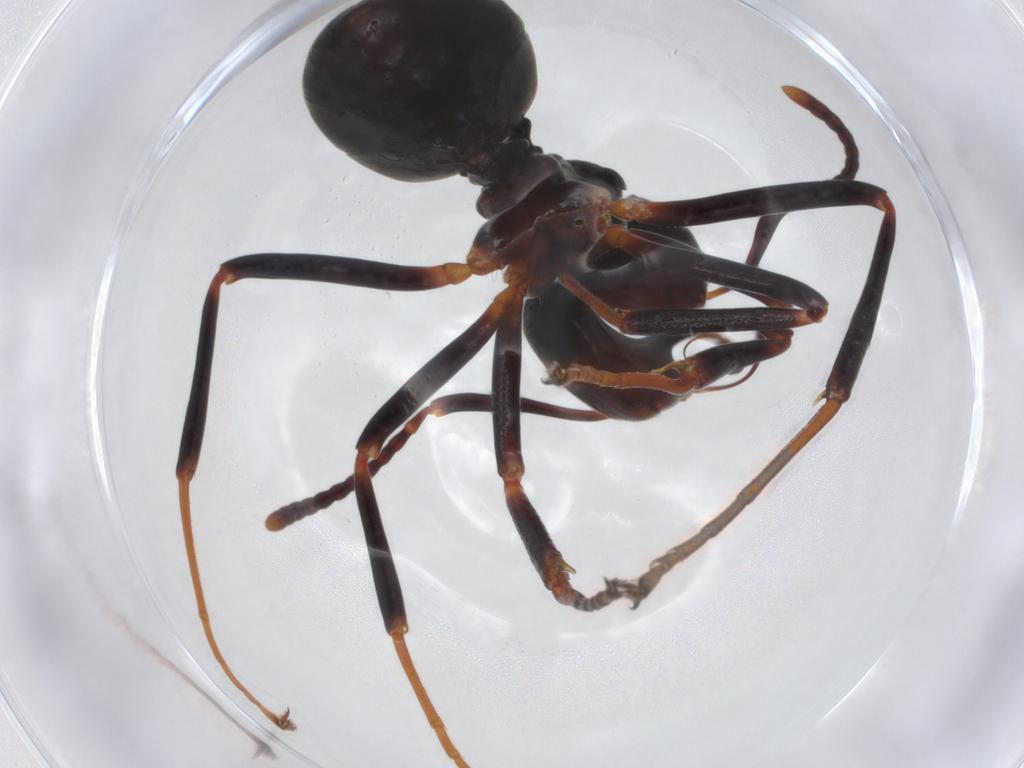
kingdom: Animalia
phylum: Arthropoda
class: Insecta
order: Hymenoptera
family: Formicidae
